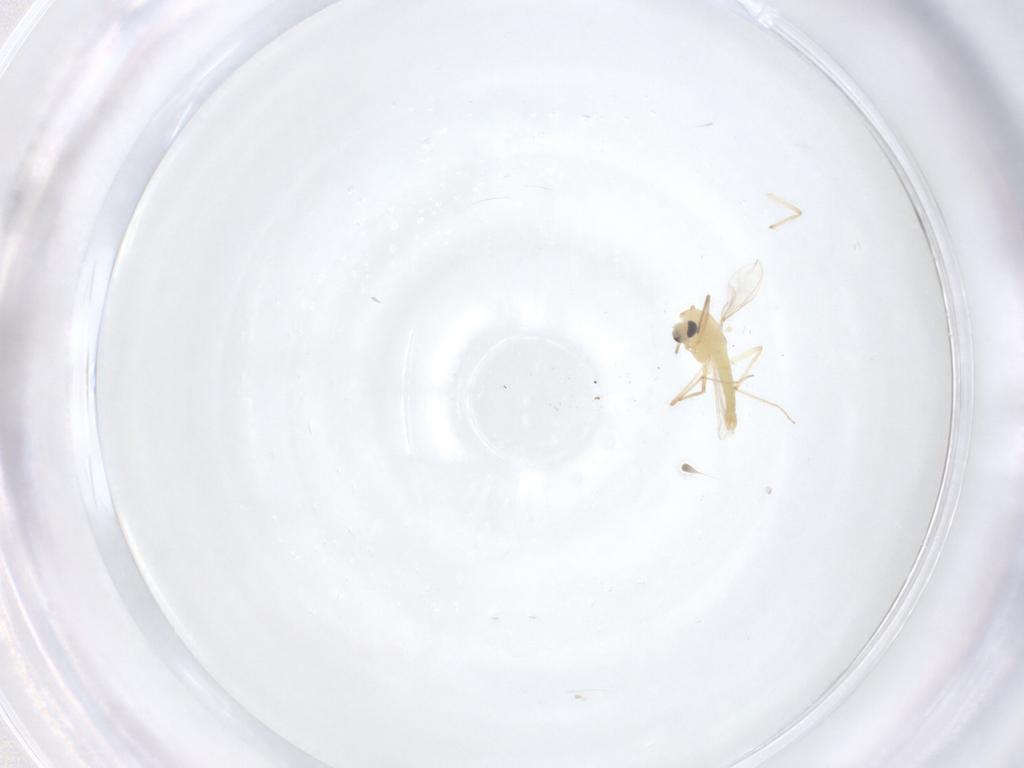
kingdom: Animalia
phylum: Arthropoda
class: Insecta
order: Diptera
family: Chironomidae
